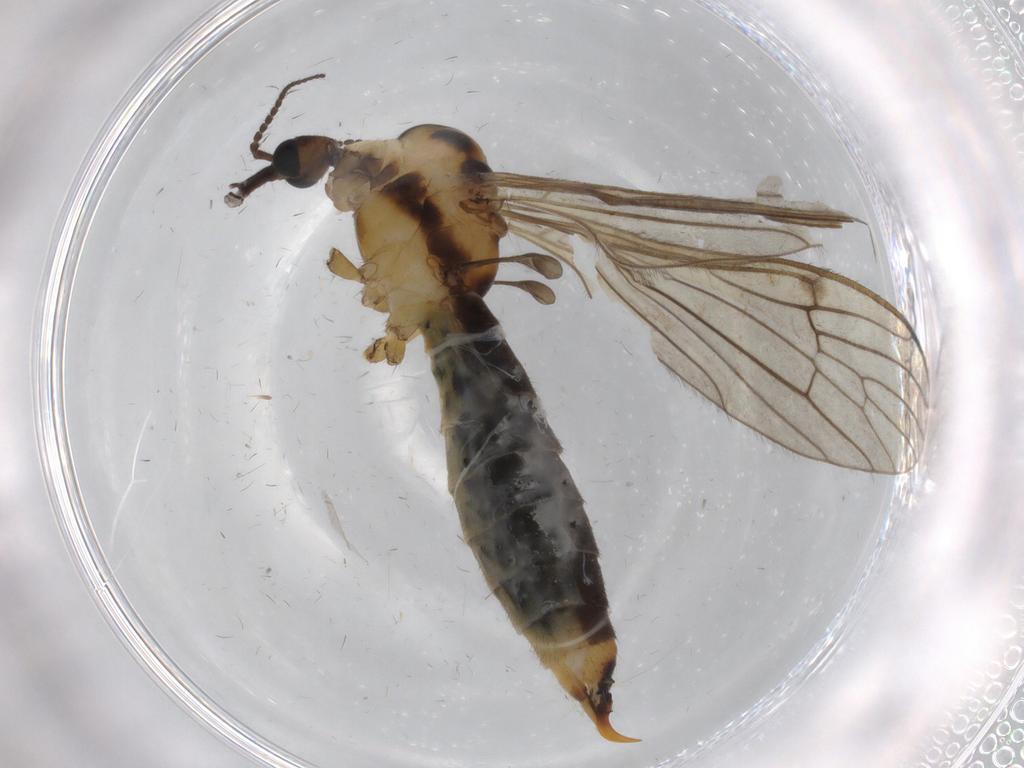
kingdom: Animalia
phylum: Arthropoda
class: Insecta
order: Diptera
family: Limoniidae
